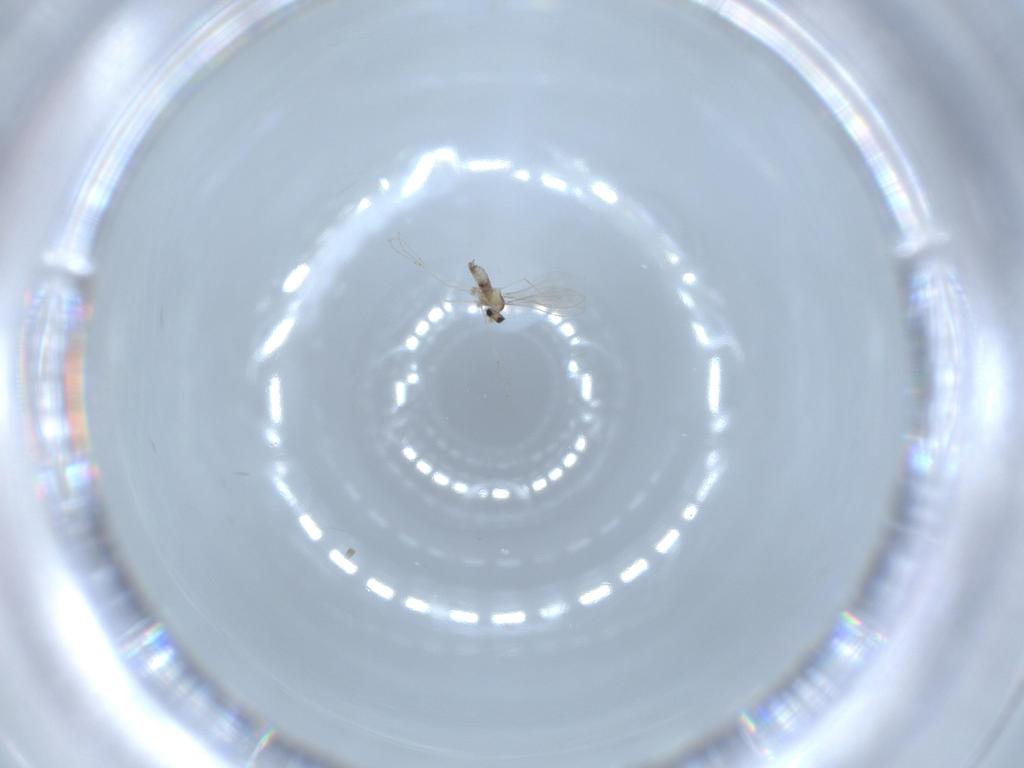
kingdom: Animalia
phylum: Arthropoda
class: Insecta
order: Diptera
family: Cecidomyiidae
